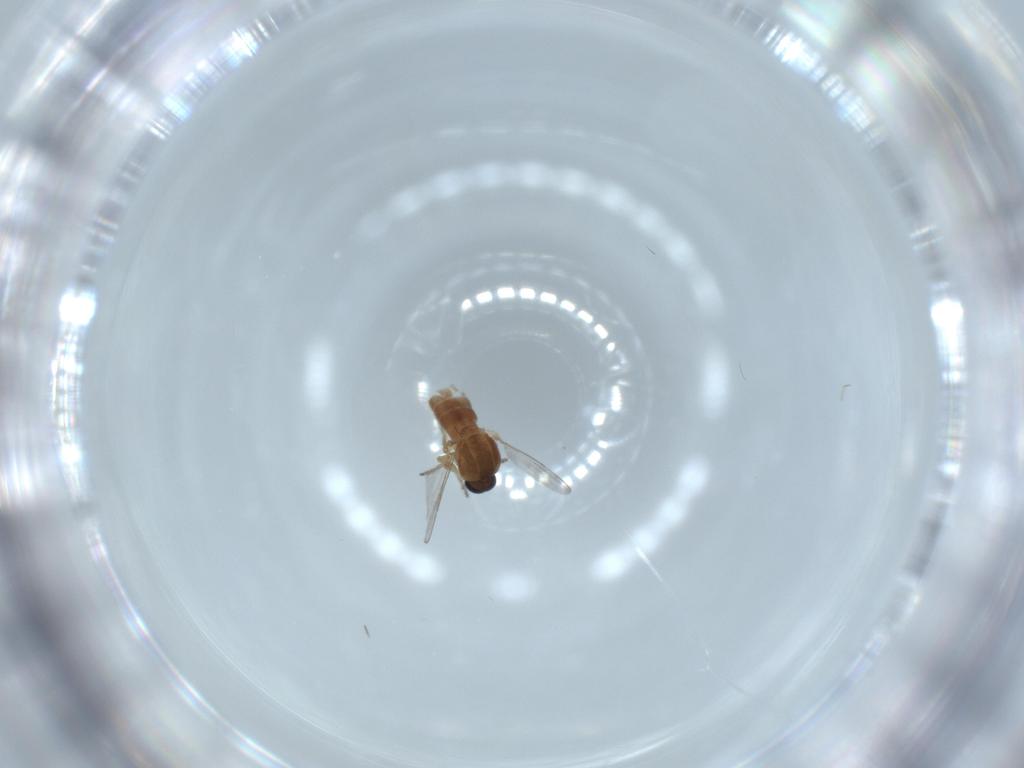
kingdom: Animalia
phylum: Arthropoda
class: Insecta
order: Diptera
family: Ceratopogonidae
